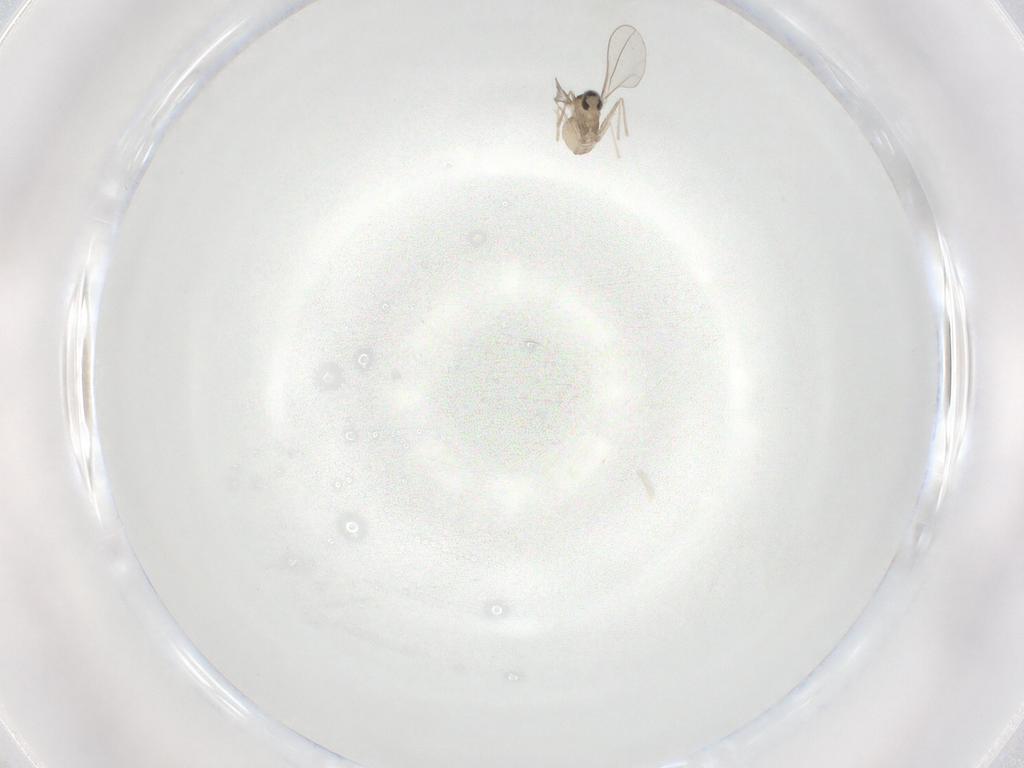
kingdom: Animalia
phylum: Arthropoda
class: Insecta
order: Diptera
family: Cecidomyiidae
